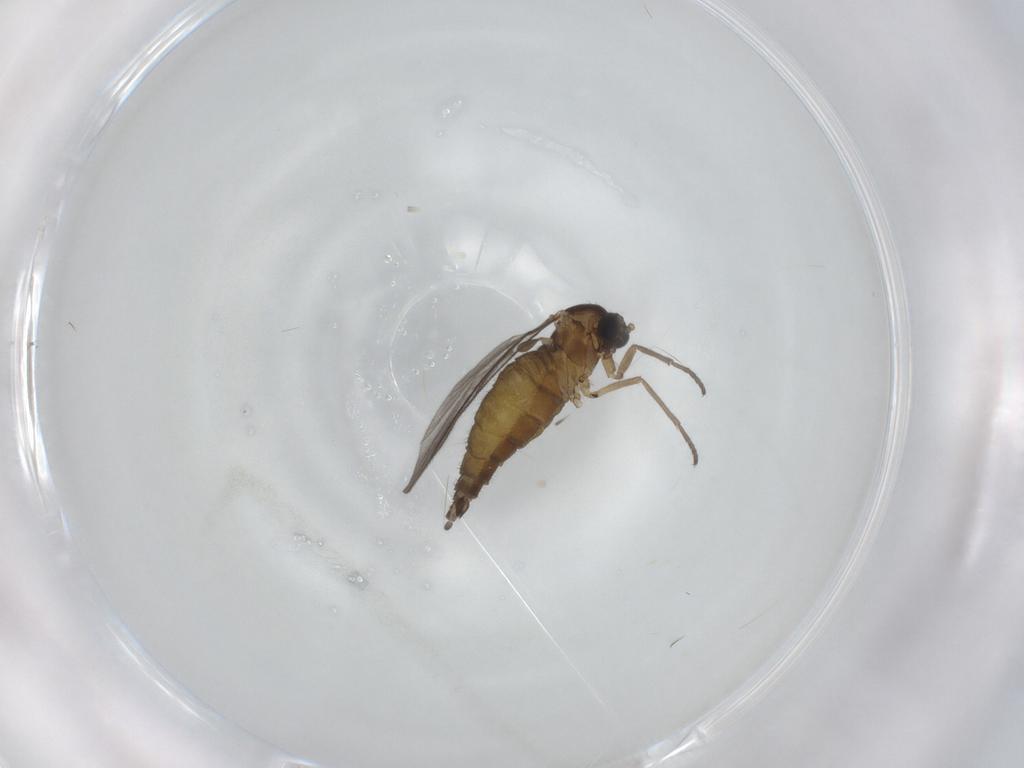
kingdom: Animalia
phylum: Arthropoda
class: Insecta
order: Diptera
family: Sciaridae
